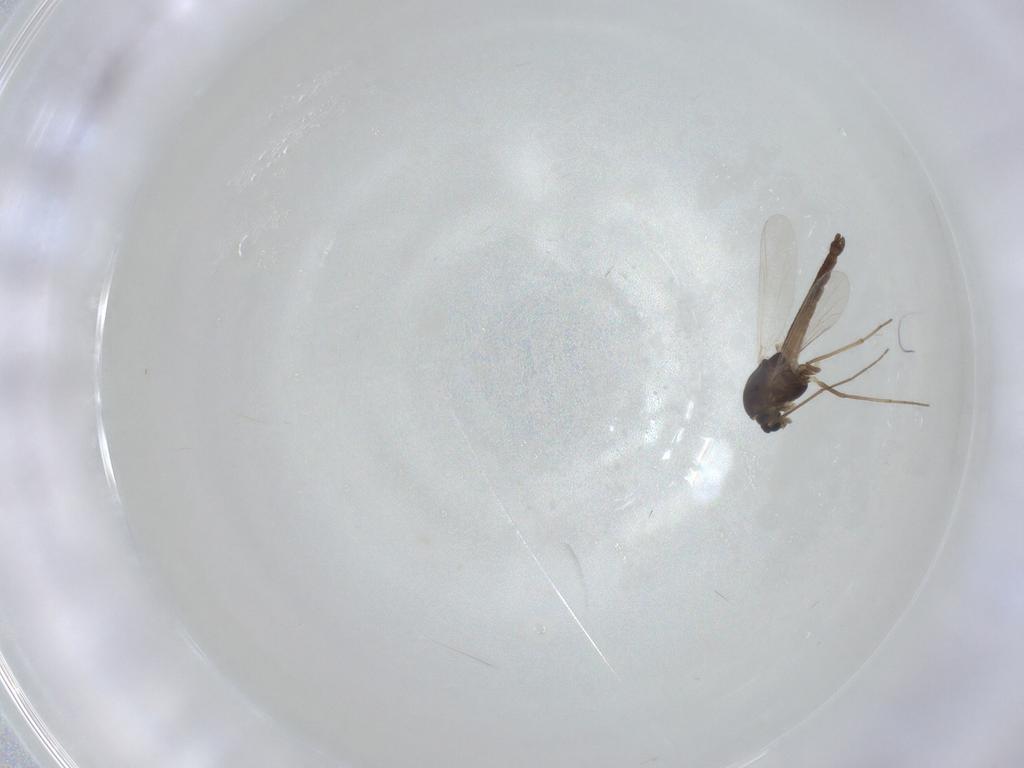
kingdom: Animalia
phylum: Arthropoda
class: Insecta
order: Diptera
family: Chironomidae
